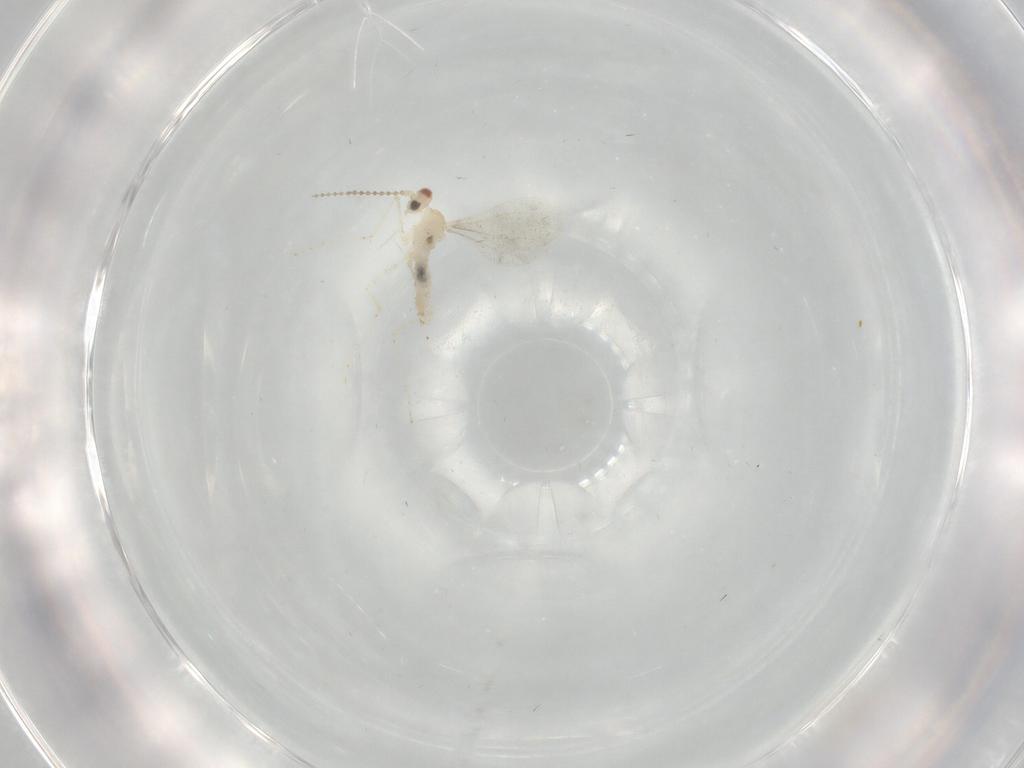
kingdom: Animalia
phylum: Arthropoda
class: Insecta
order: Diptera
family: Cecidomyiidae
